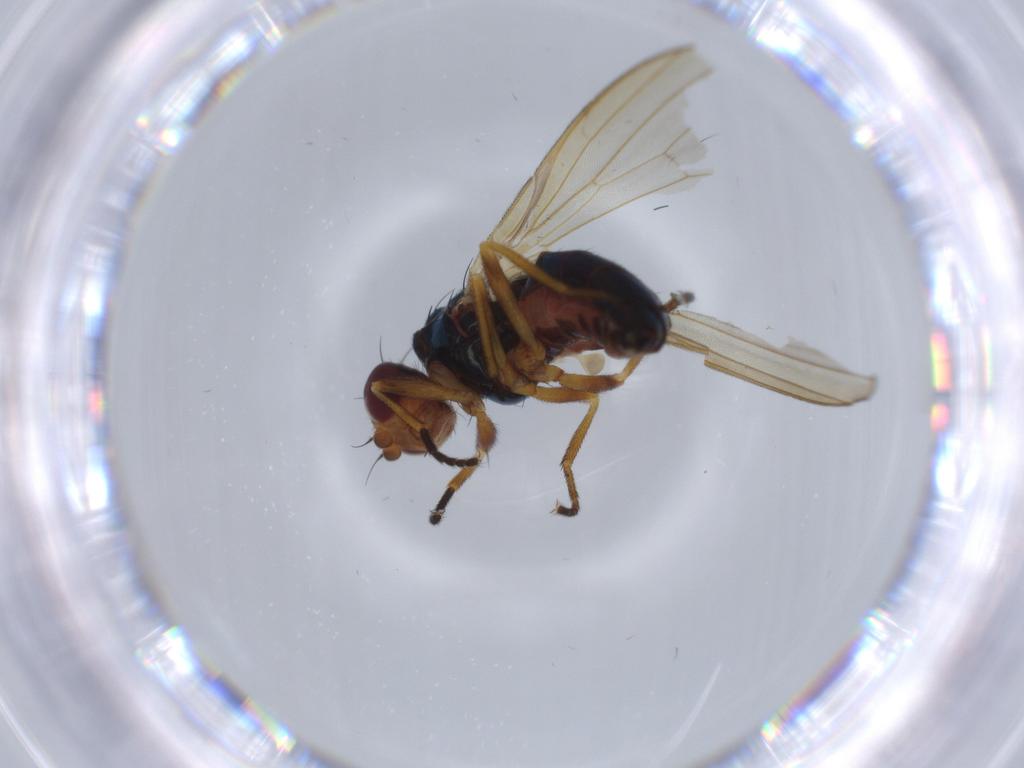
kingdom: Animalia
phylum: Arthropoda
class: Insecta
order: Diptera
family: Piophilidae
